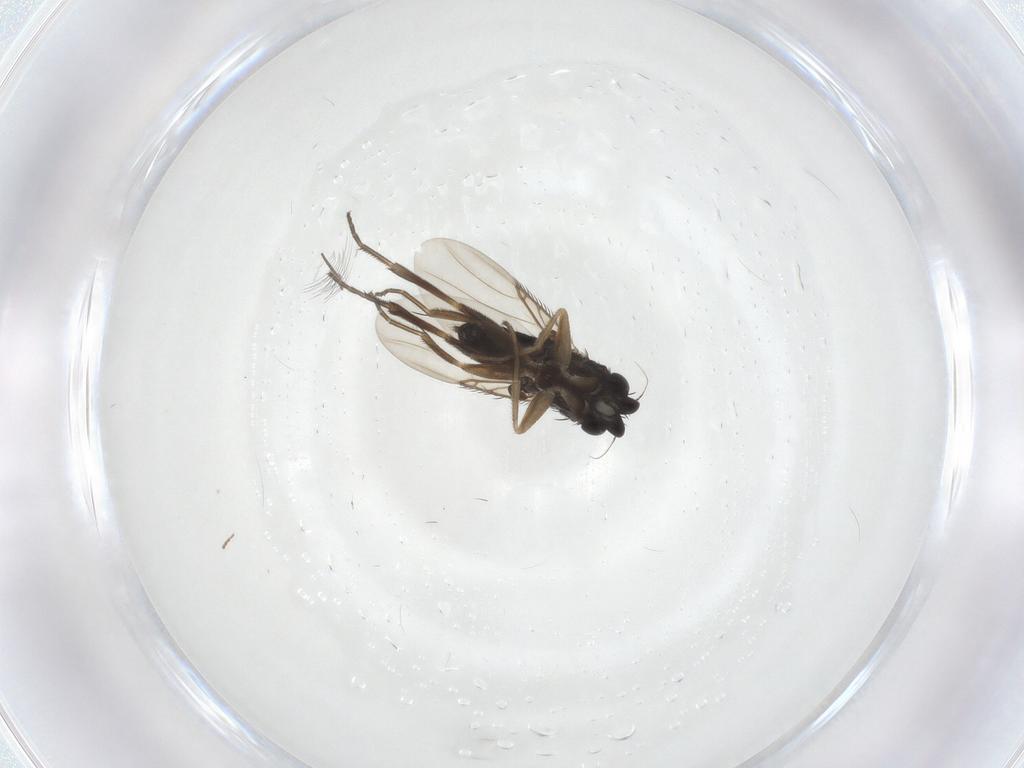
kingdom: Animalia
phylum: Arthropoda
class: Insecta
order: Diptera
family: Phoridae
